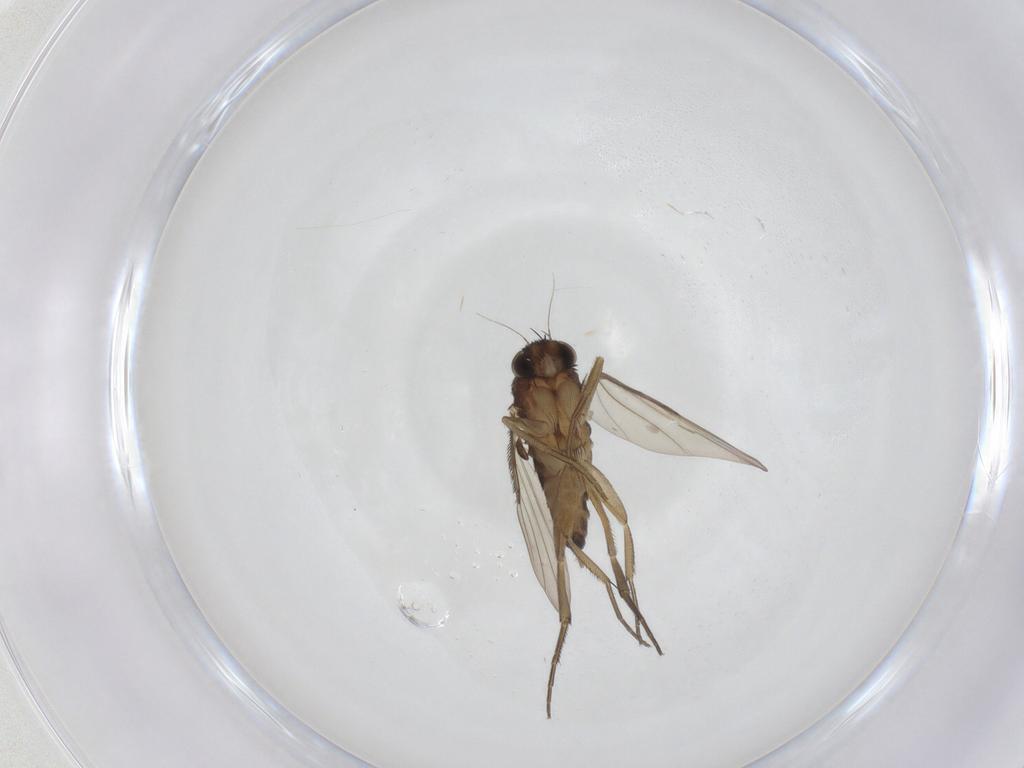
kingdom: Animalia
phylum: Arthropoda
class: Insecta
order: Diptera
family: Phoridae
